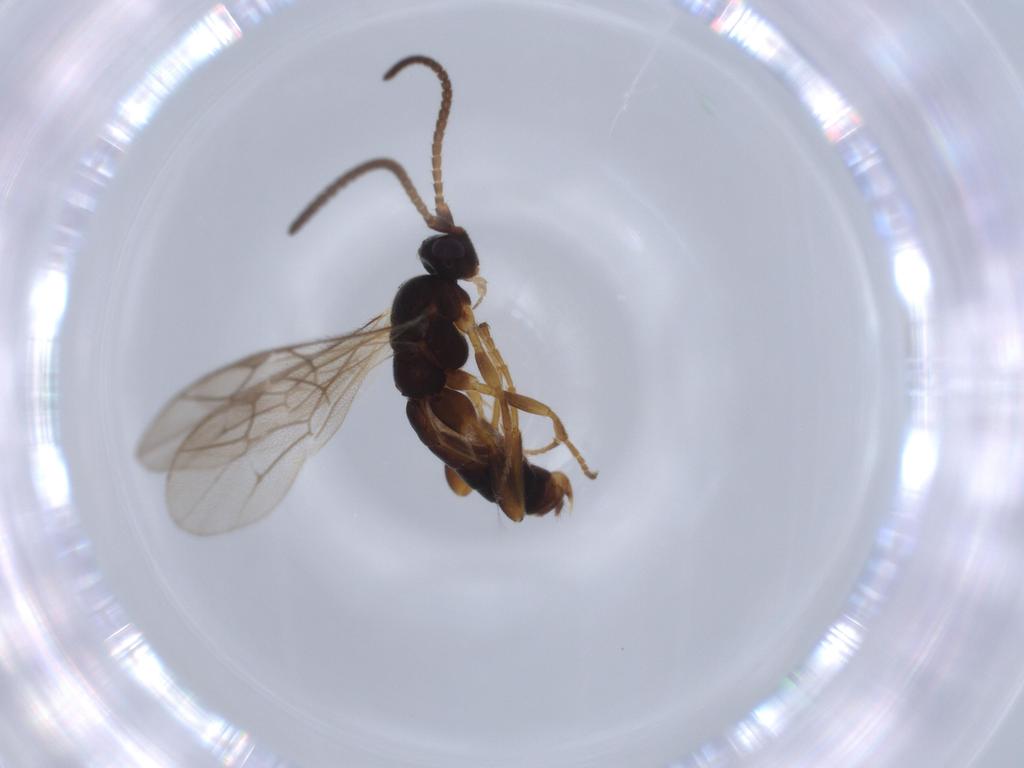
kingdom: Animalia
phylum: Arthropoda
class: Insecta
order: Hymenoptera
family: Ichneumonidae
